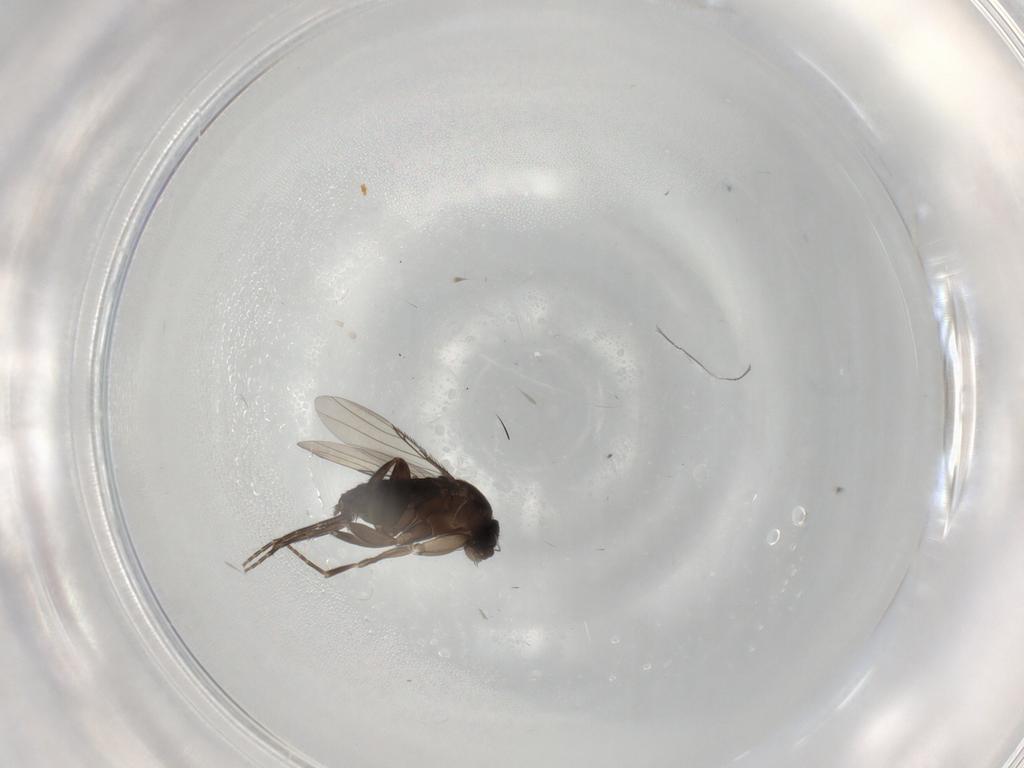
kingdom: Animalia
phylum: Arthropoda
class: Insecta
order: Diptera
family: Phoridae
